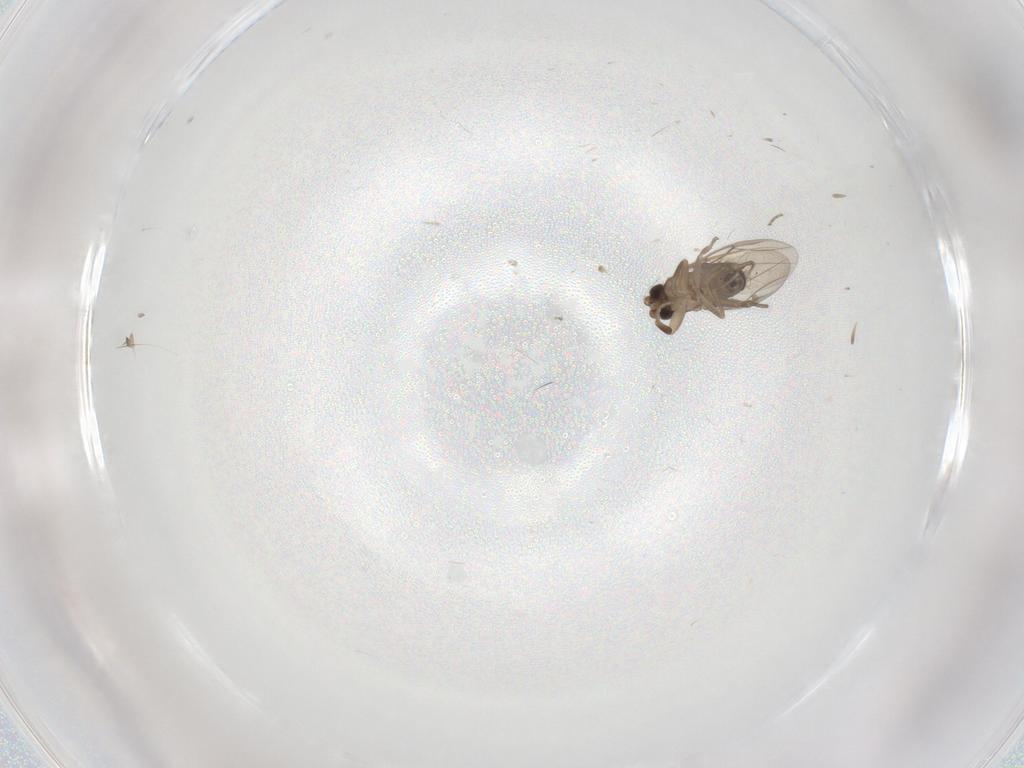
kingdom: Animalia
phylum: Arthropoda
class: Insecta
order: Diptera
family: Phoridae
